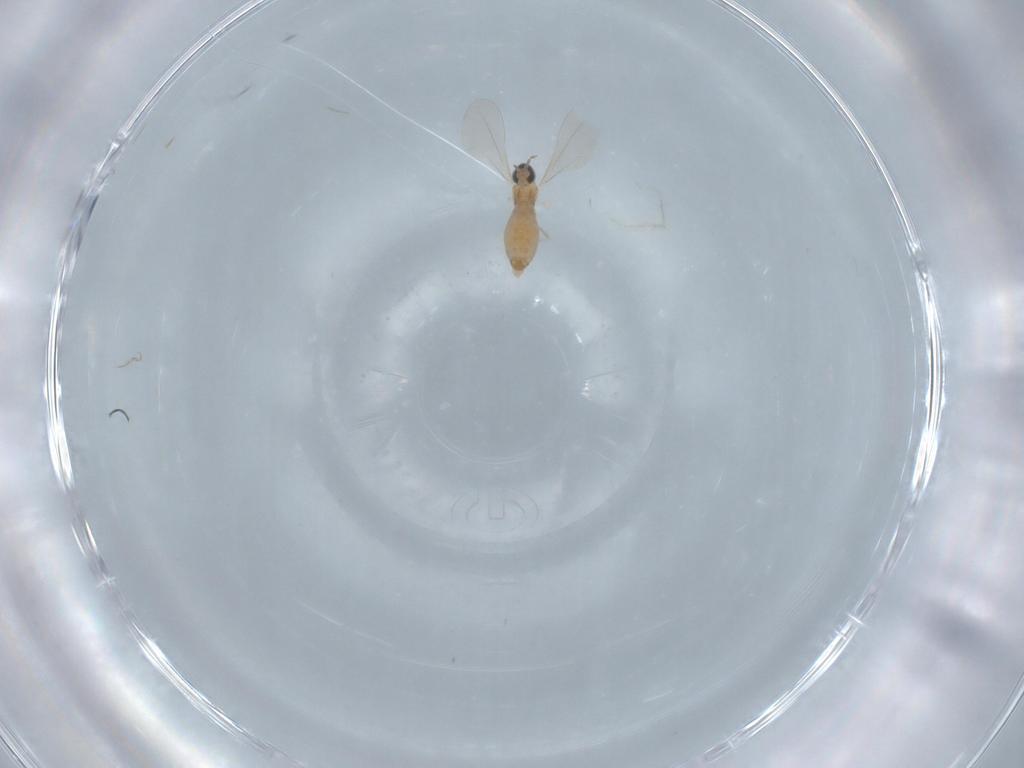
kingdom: Animalia
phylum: Arthropoda
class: Insecta
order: Diptera
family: Cecidomyiidae
